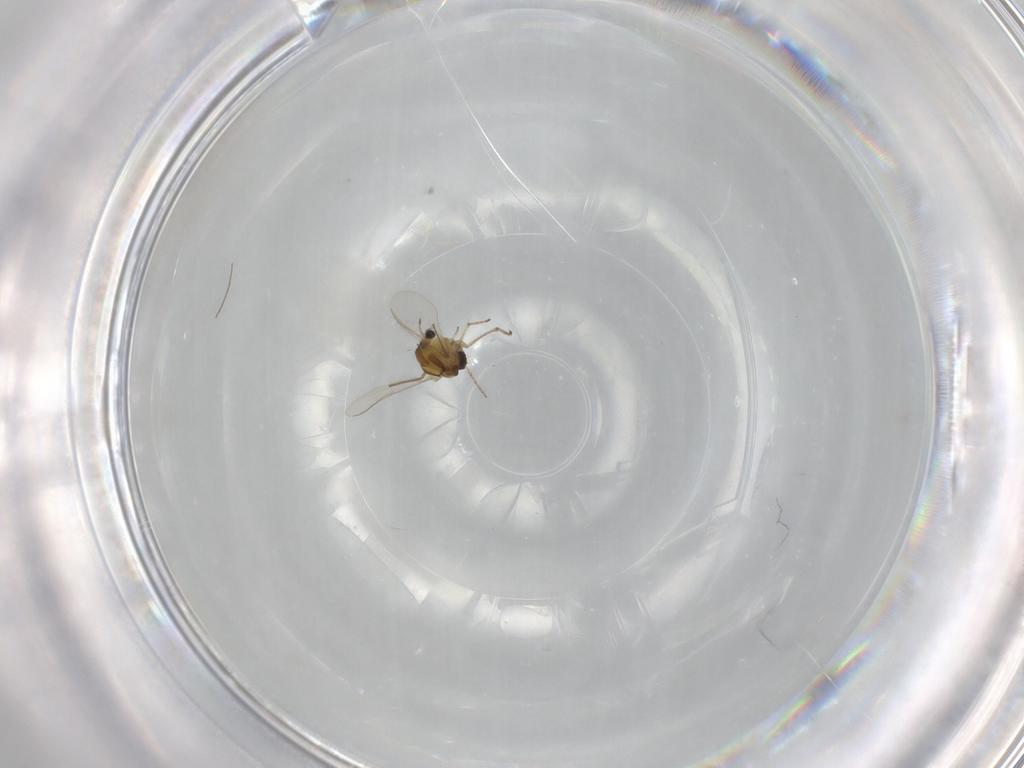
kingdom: Animalia
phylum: Arthropoda
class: Insecta
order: Diptera
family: Chironomidae
